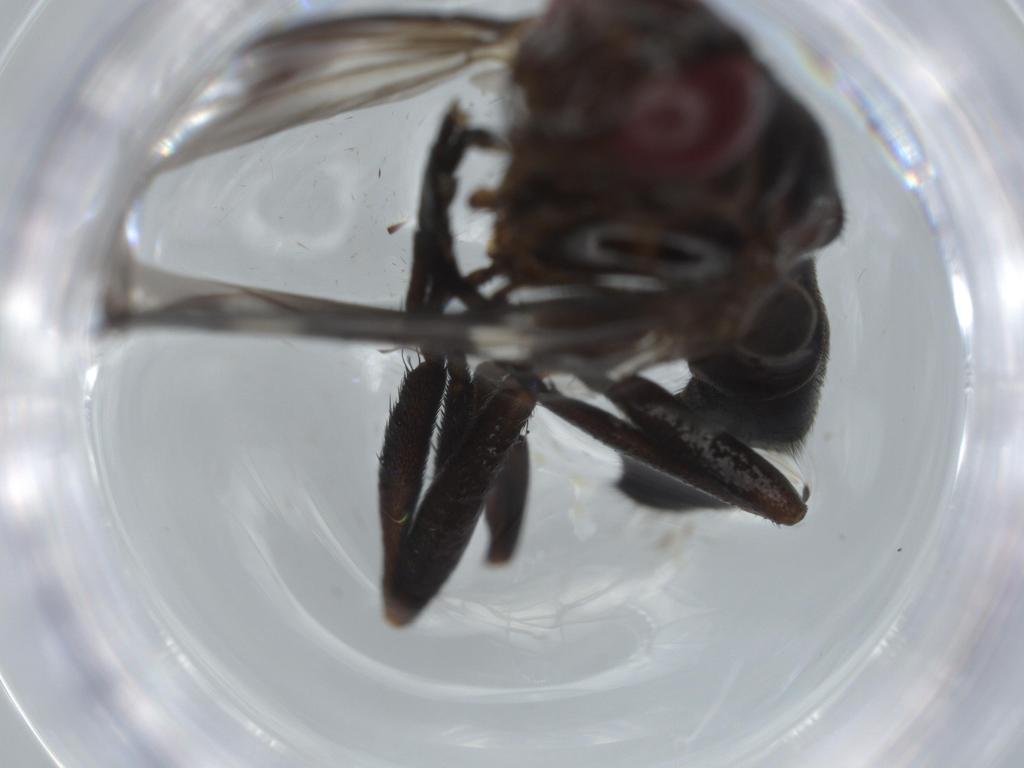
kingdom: Animalia
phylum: Arthropoda
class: Insecta
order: Diptera
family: Calliphoridae
